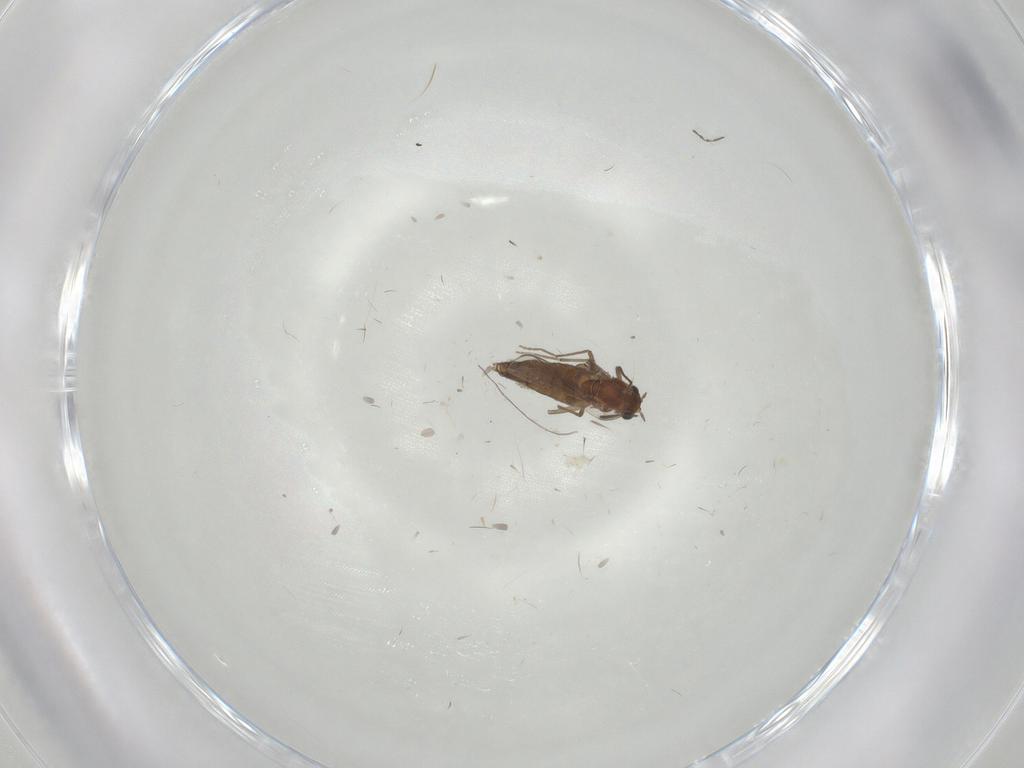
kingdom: Animalia
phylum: Arthropoda
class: Insecta
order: Diptera
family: Chironomidae
